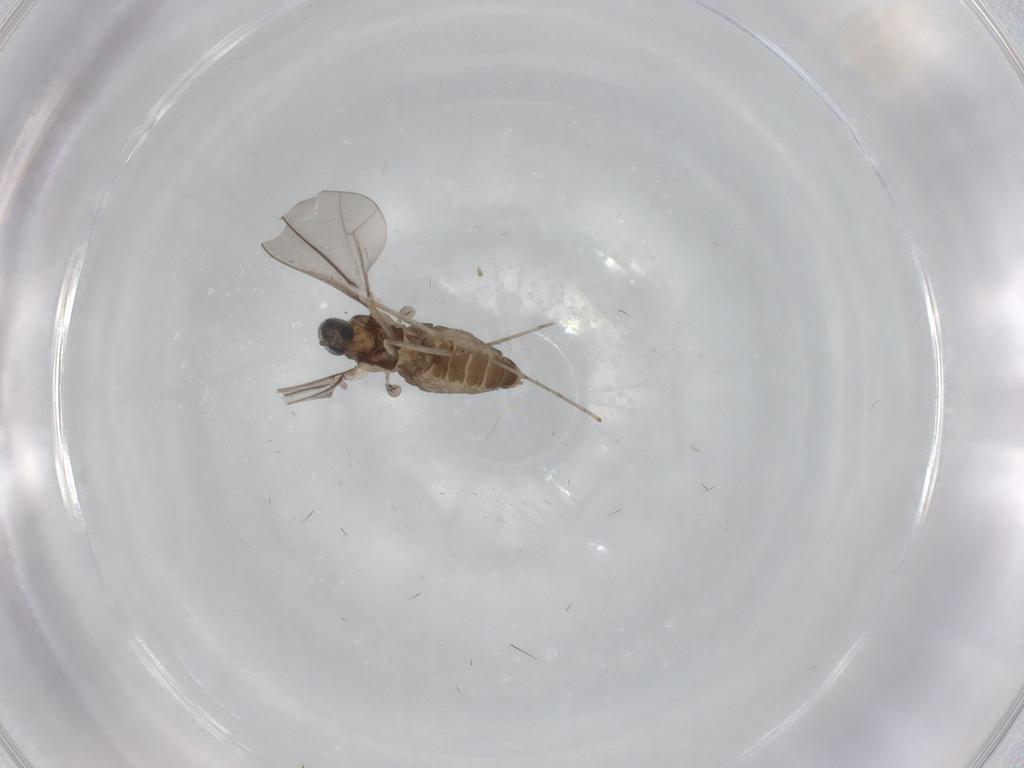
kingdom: Animalia
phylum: Arthropoda
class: Insecta
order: Diptera
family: Cecidomyiidae
